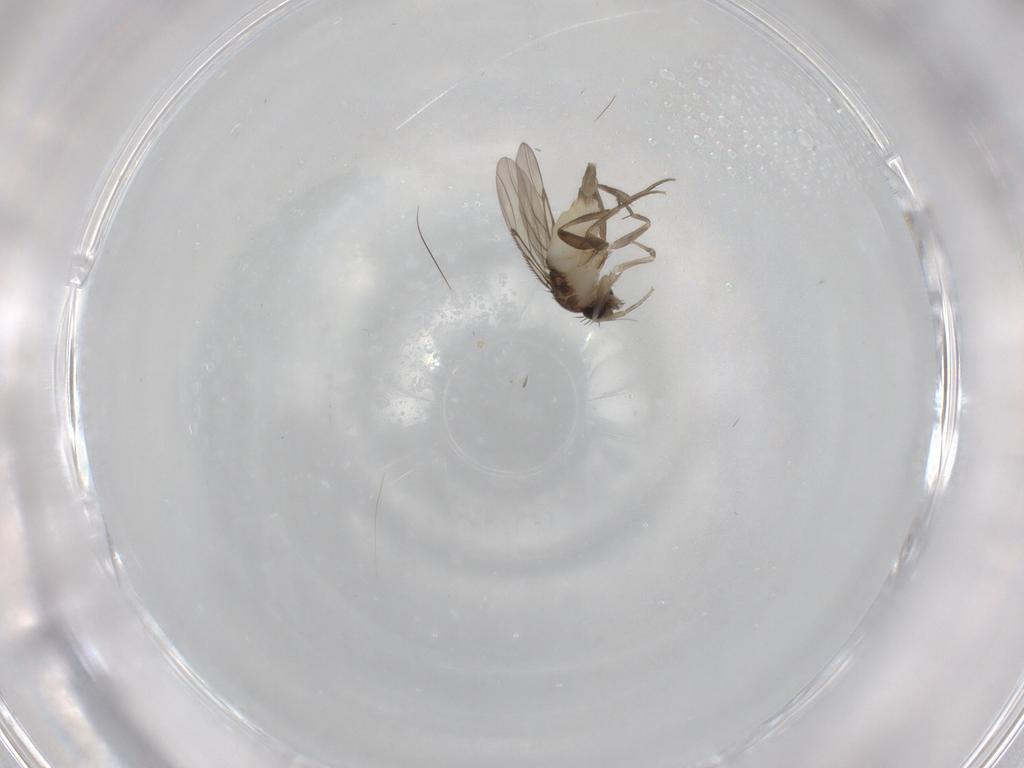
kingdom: Animalia
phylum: Arthropoda
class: Insecta
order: Diptera
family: Phoridae
